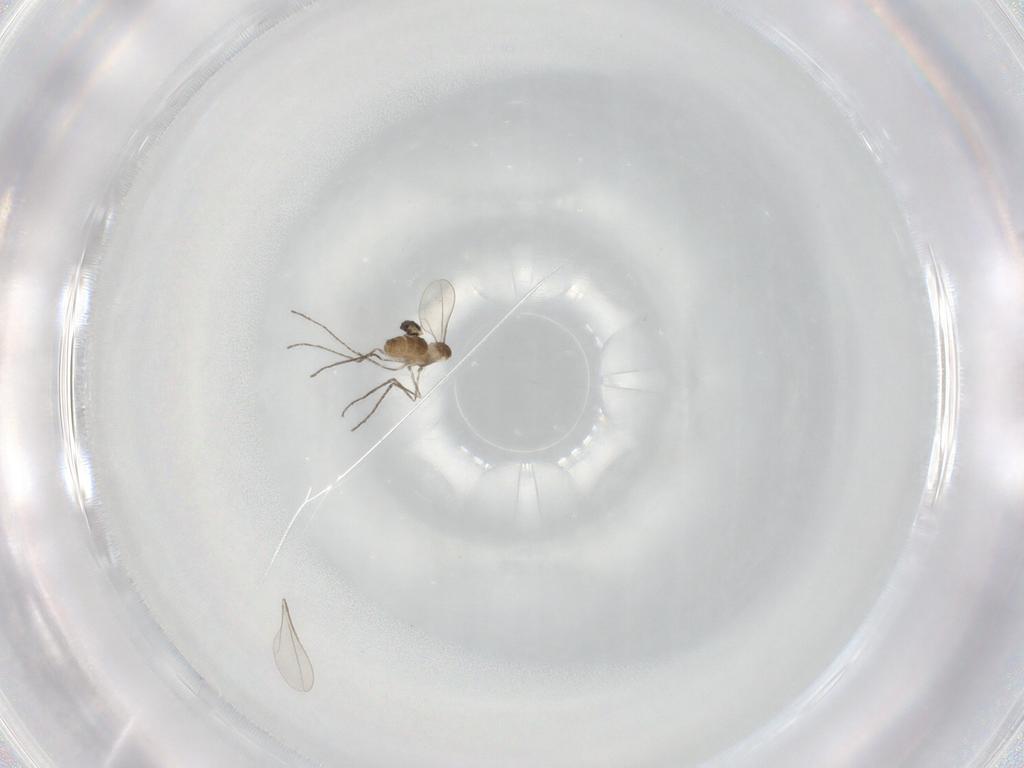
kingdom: Animalia
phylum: Arthropoda
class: Insecta
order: Diptera
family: Cecidomyiidae
